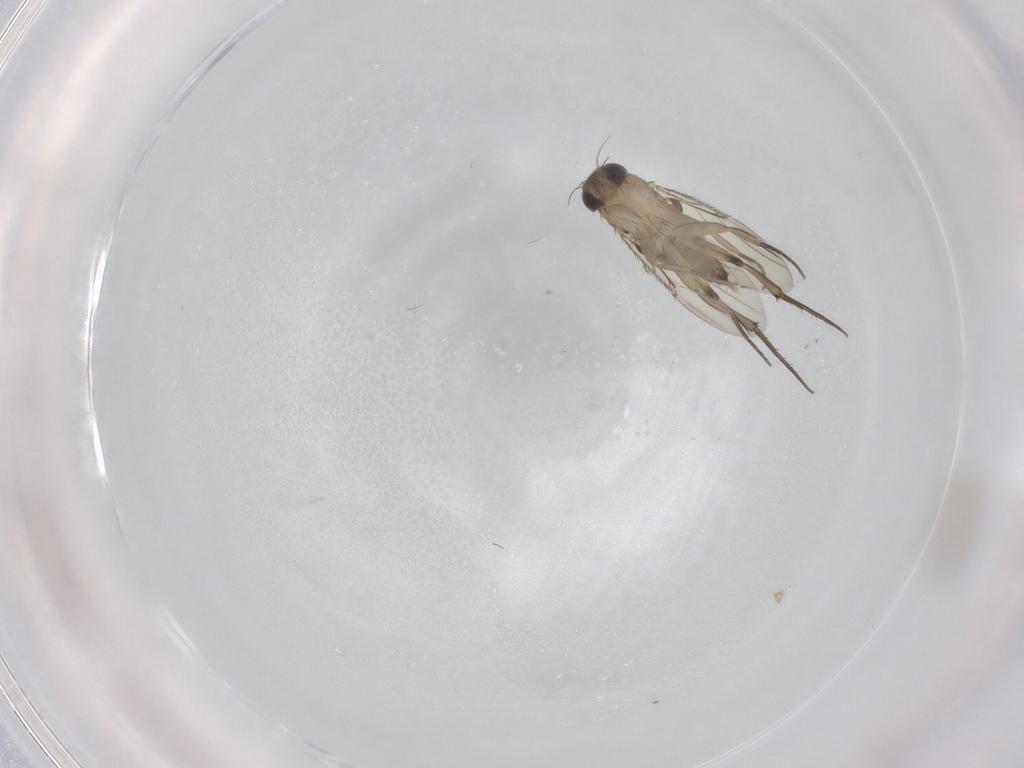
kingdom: Animalia
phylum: Arthropoda
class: Insecta
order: Diptera
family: Phoridae
